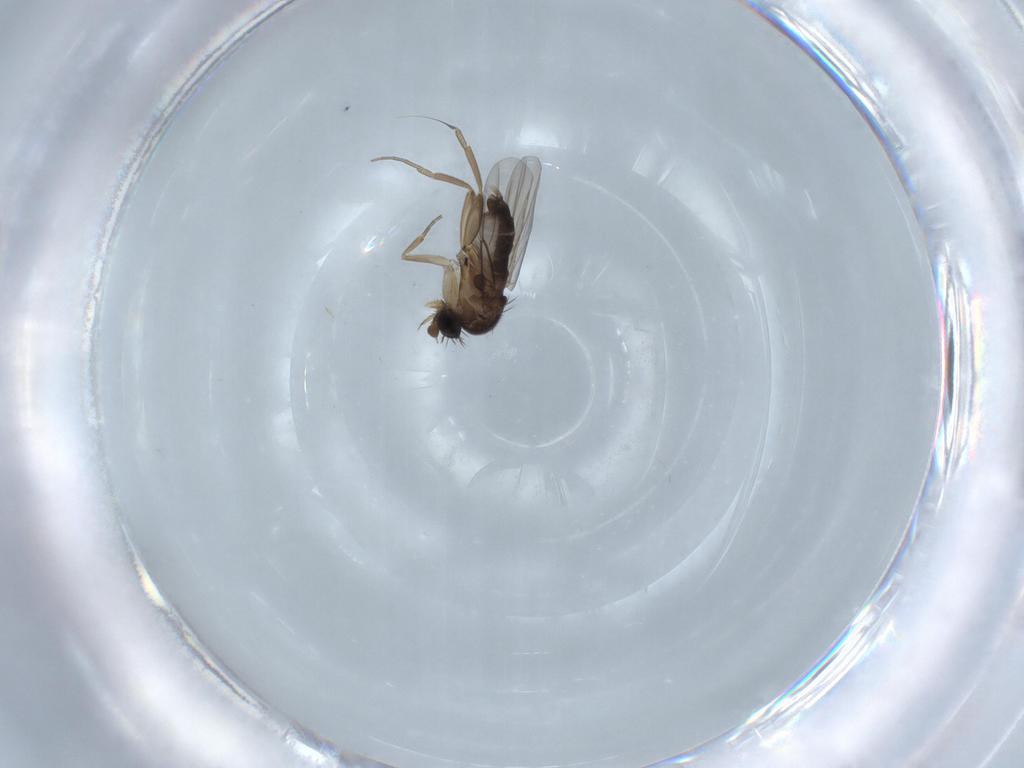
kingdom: Animalia
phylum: Arthropoda
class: Insecta
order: Diptera
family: Phoridae
